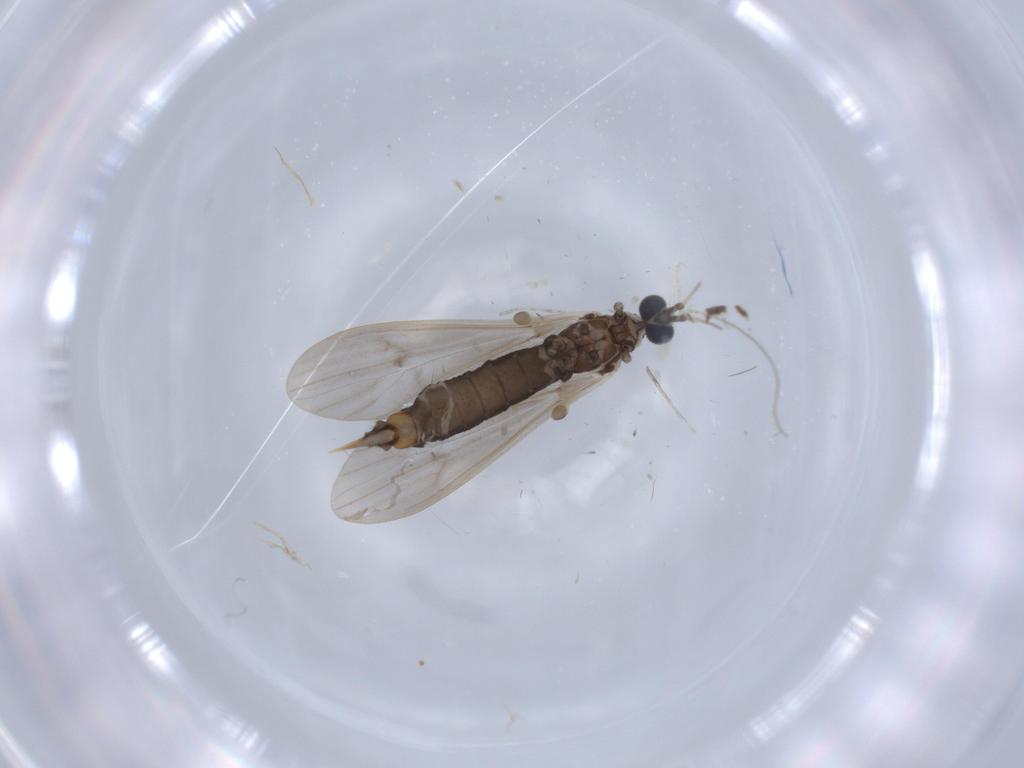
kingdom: Animalia
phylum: Arthropoda
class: Insecta
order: Diptera
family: Limoniidae
